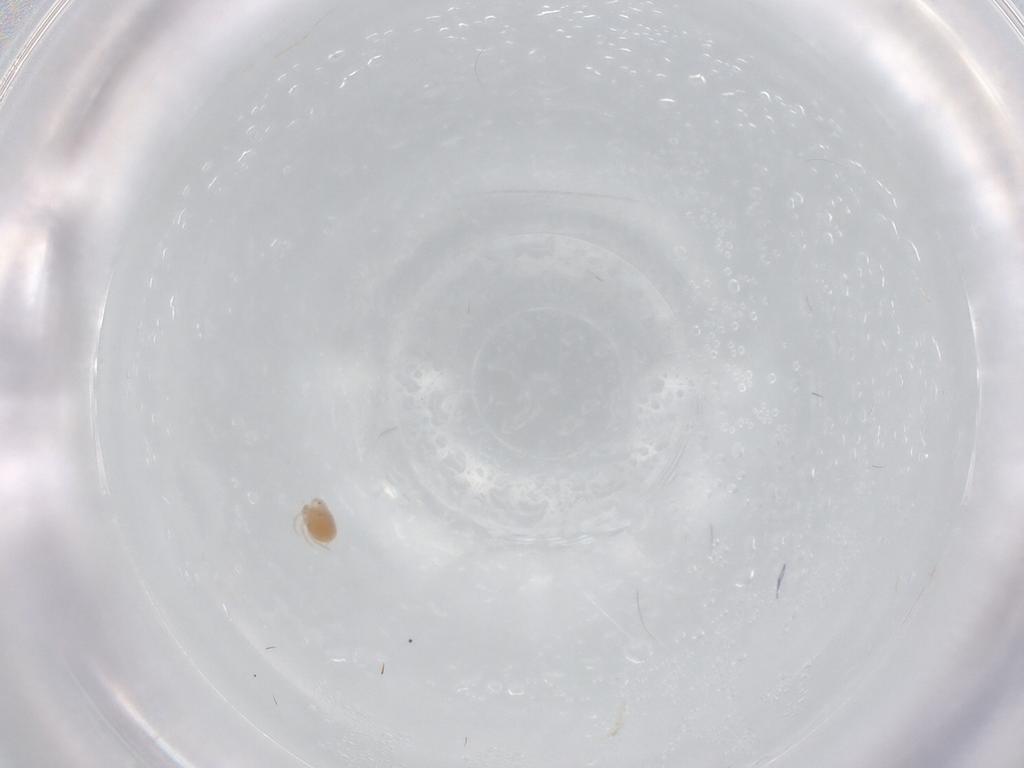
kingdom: Animalia
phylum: Arthropoda
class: Arachnida
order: Trombidiformes
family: Lebertiidae
